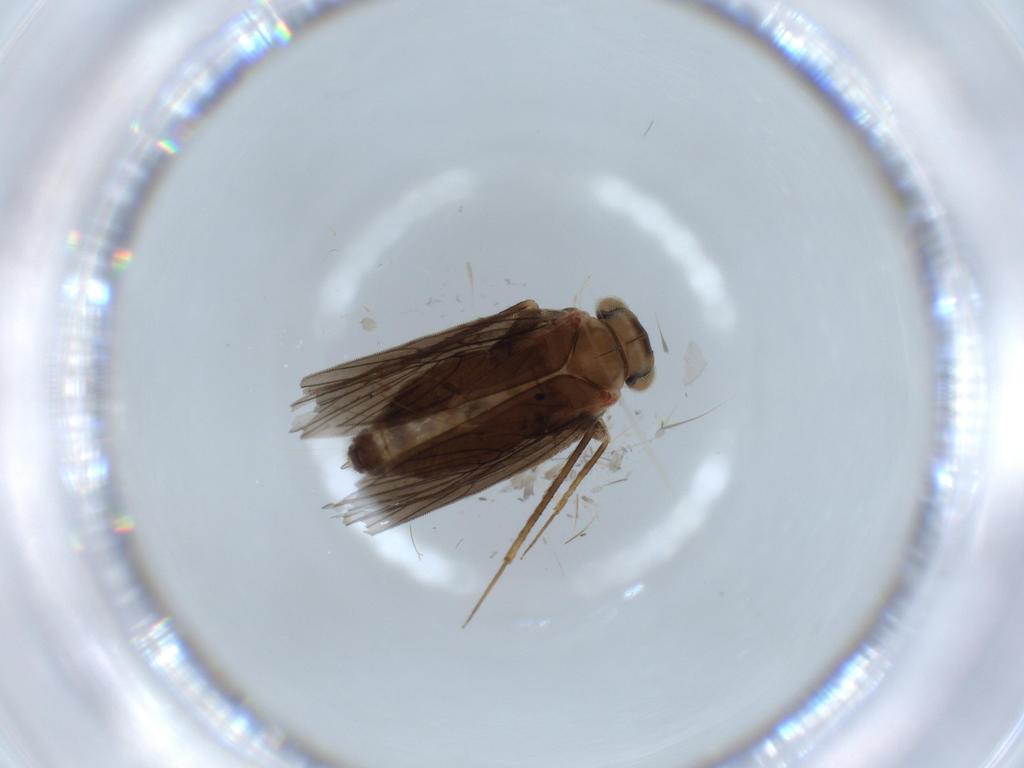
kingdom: Animalia
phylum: Arthropoda
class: Insecta
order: Psocodea
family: Lepidopsocidae
